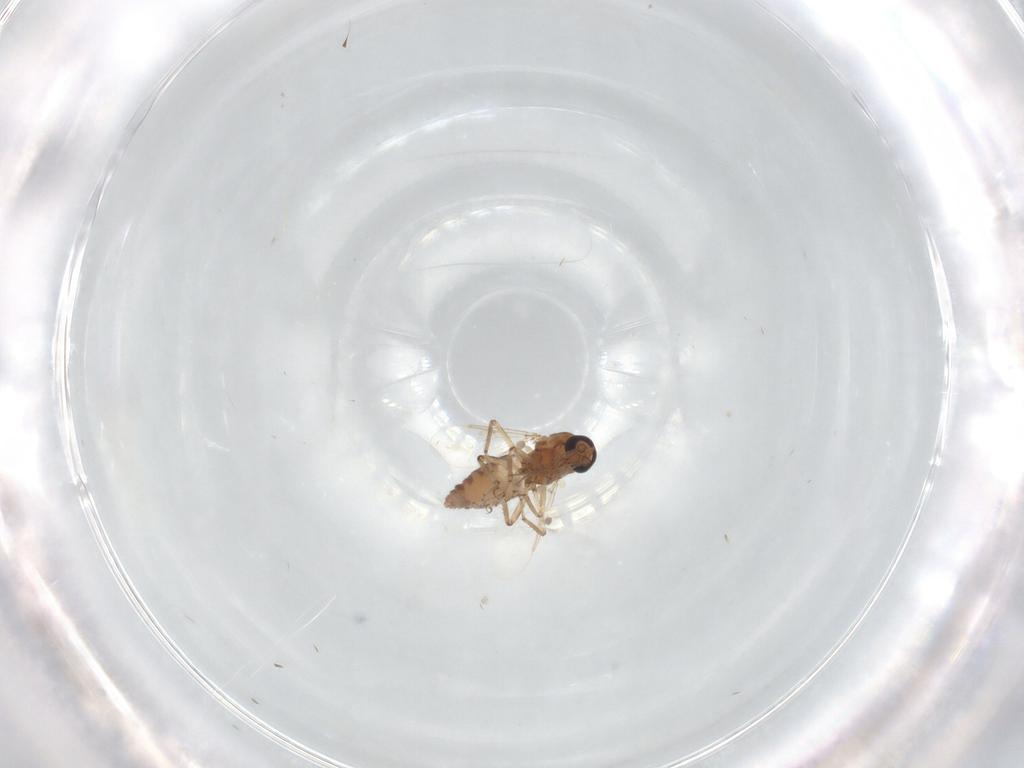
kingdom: Animalia
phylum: Arthropoda
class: Insecta
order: Diptera
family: Ceratopogonidae
